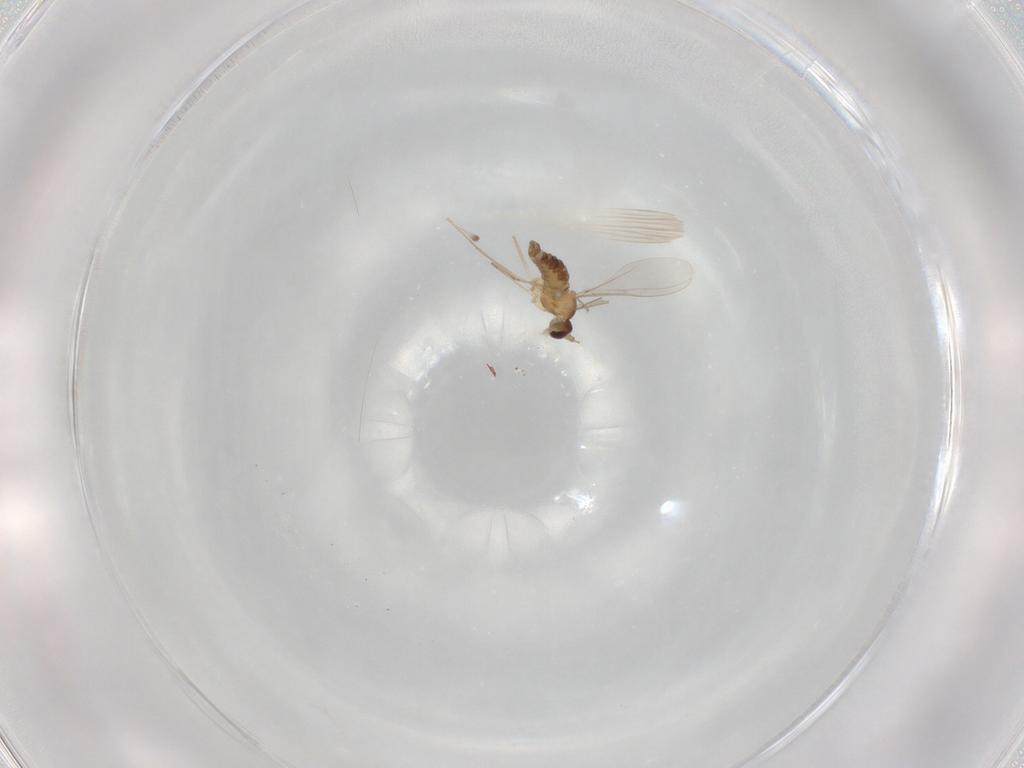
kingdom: Animalia
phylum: Arthropoda
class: Insecta
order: Diptera
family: Cecidomyiidae
